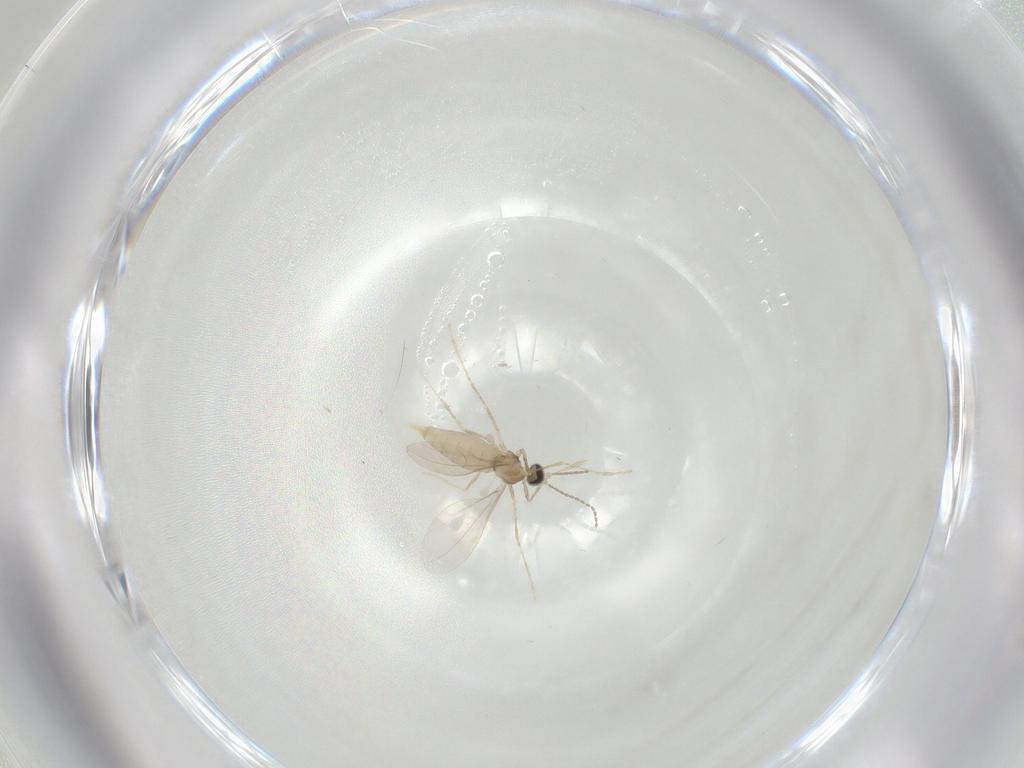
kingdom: Animalia
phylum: Arthropoda
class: Insecta
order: Diptera
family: Cecidomyiidae
